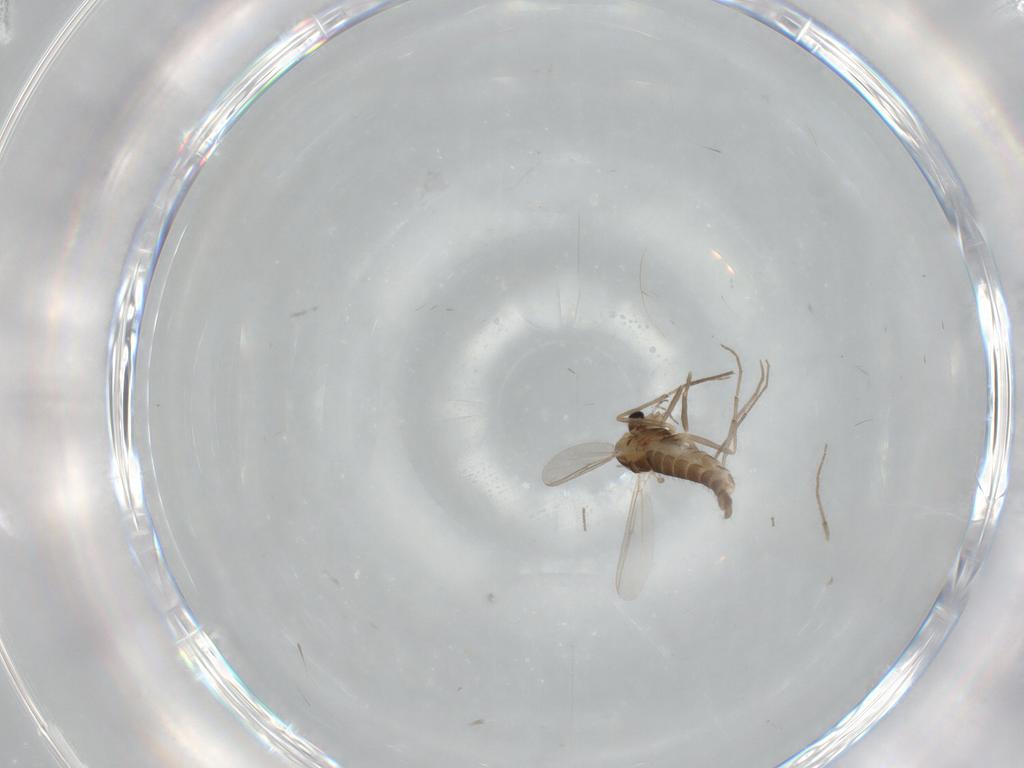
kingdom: Animalia
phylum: Arthropoda
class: Insecta
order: Diptera
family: Chironomidae
